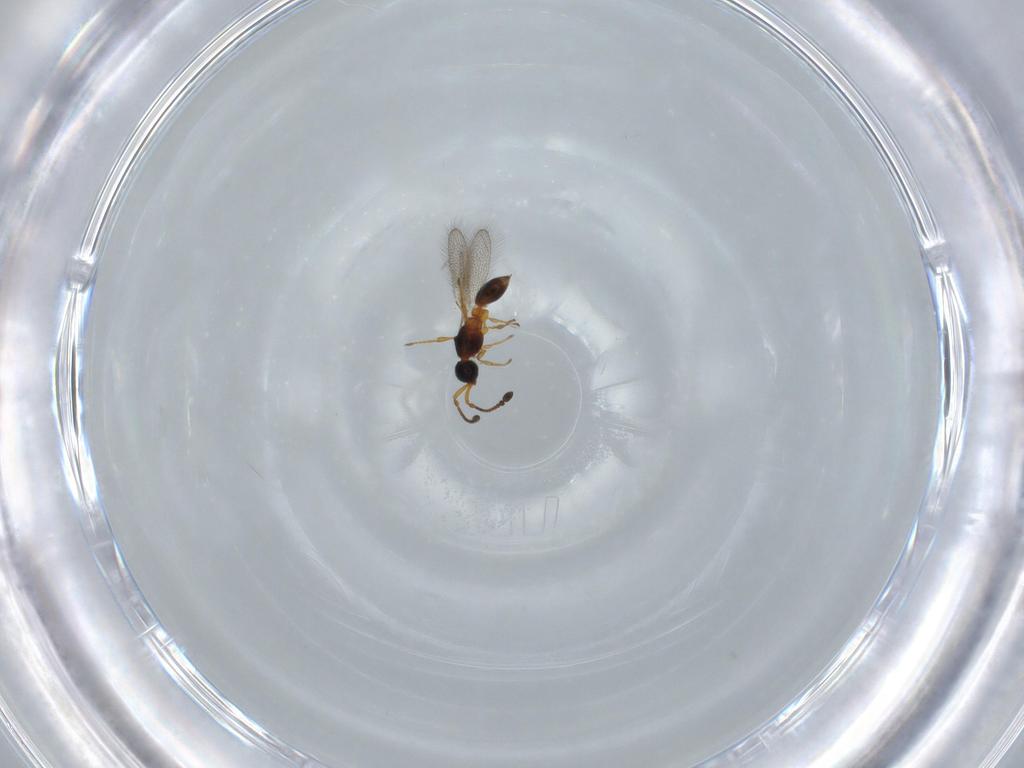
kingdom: Animalia
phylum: Arthropoda
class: Insecta
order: Hymenoptera
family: Diapriidae
